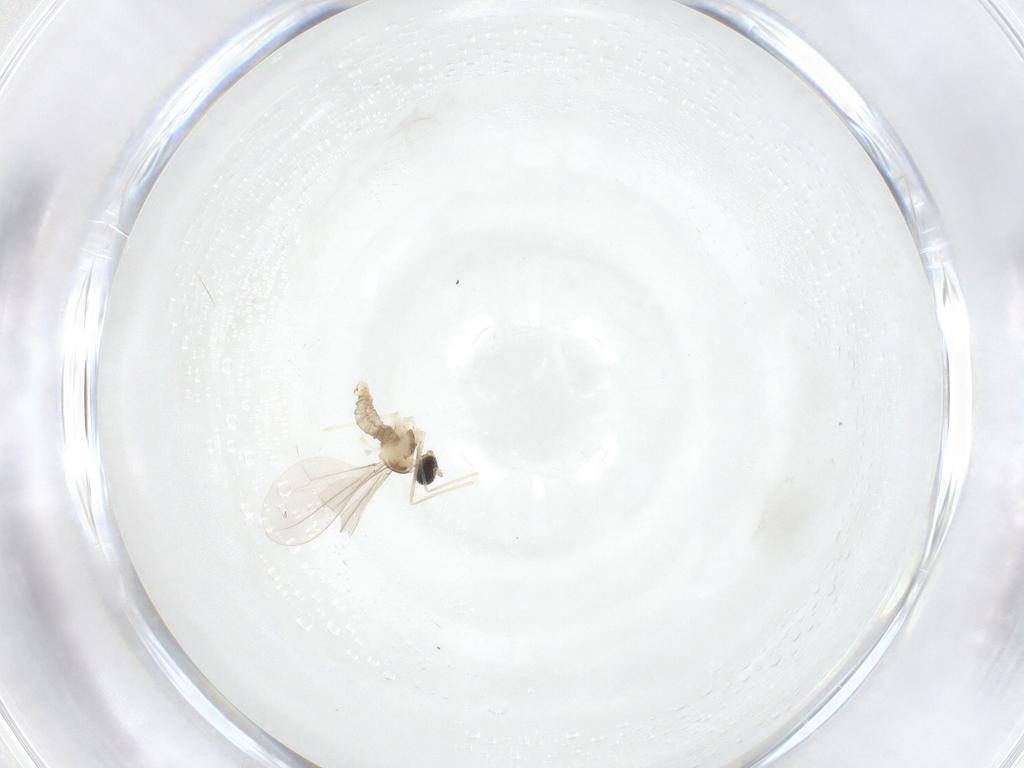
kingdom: Animalia
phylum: Arthropoda
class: Insecta
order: Diptera
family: Cecidomyiidae
